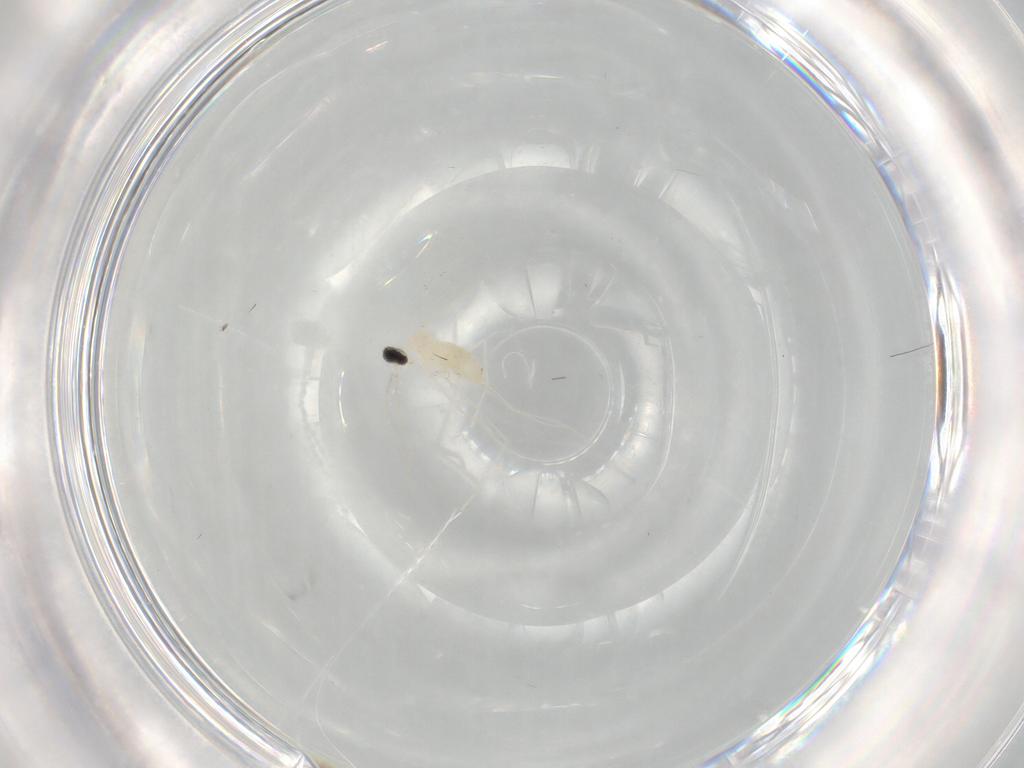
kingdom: Animalia
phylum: Arthropoda
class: Insecta
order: Diptera
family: Cecidomyiidae
